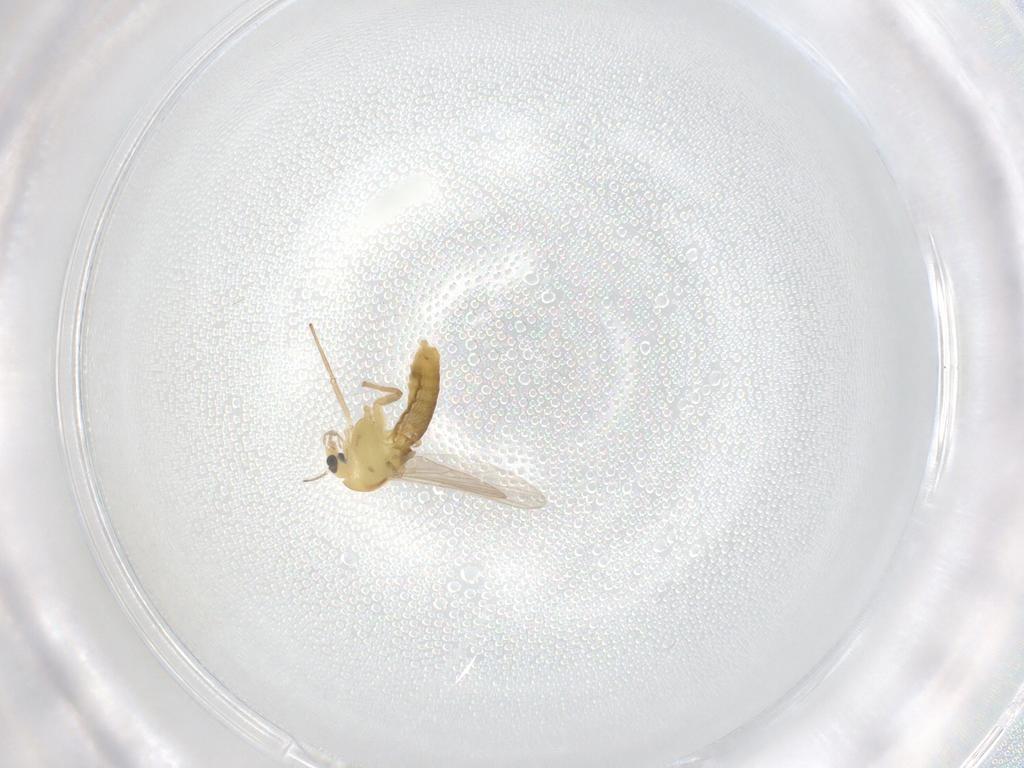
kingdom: Animalia
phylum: Arthropoda
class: Insecta
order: Diptera
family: Chironomidae
